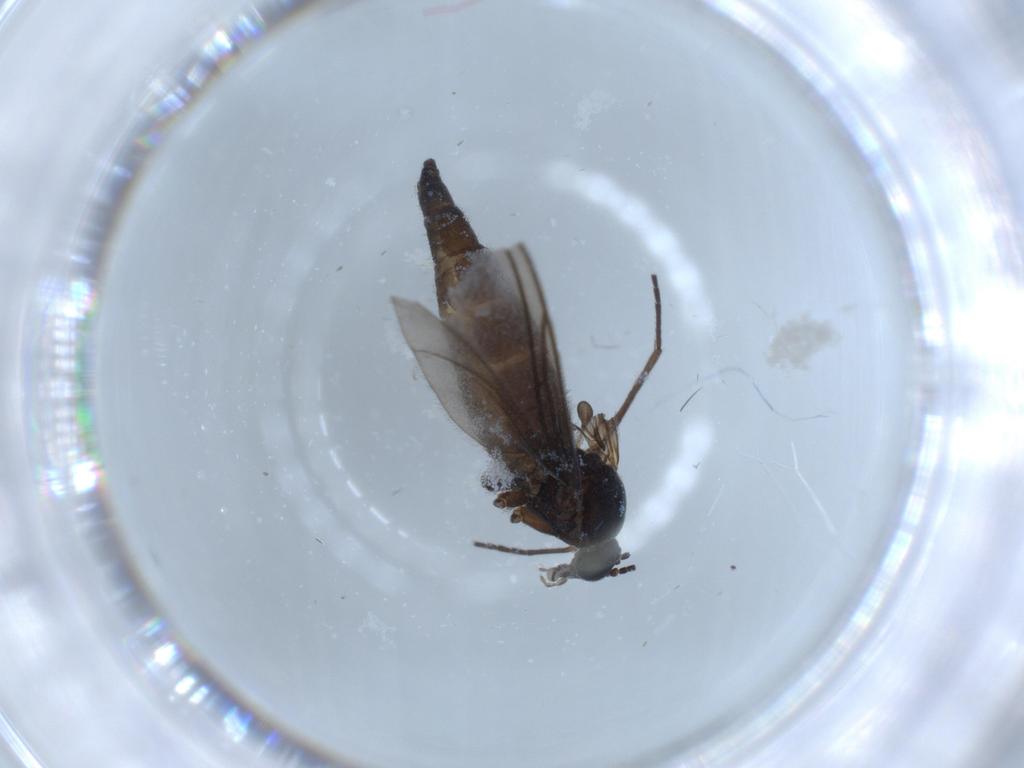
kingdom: Animalia
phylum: Arthropoda
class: Insecta
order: Diptera
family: Sciaridae
